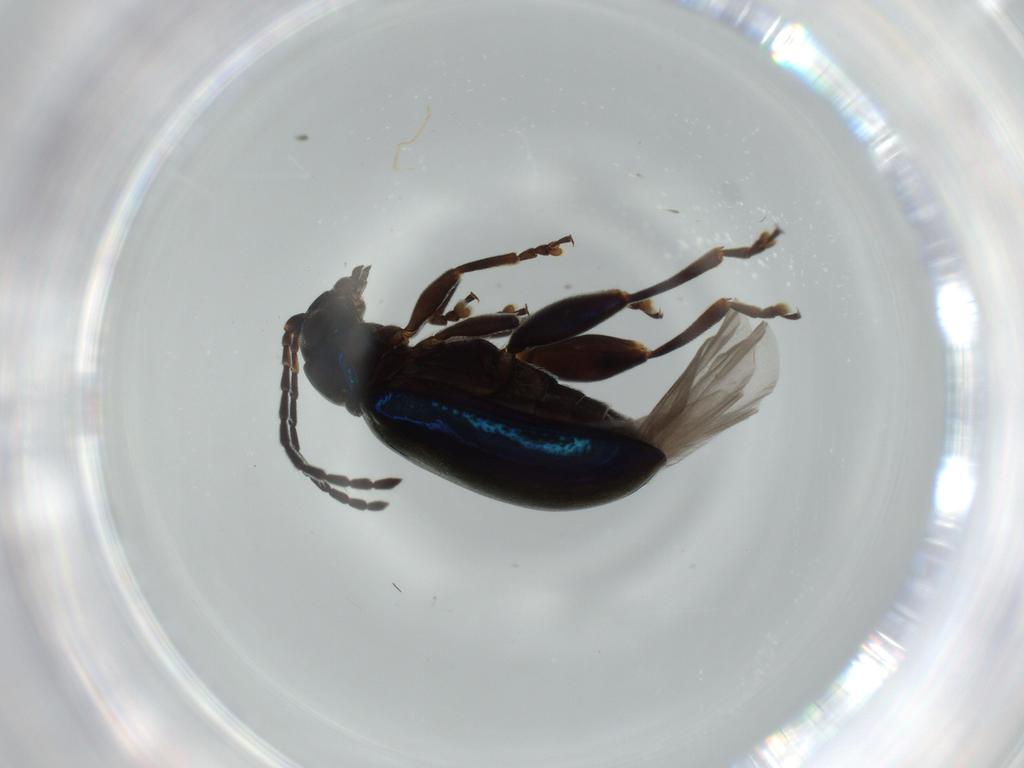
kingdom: Animalia
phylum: Arthropoda
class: Insecta
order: Coleoptera
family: Chrysomelidae
